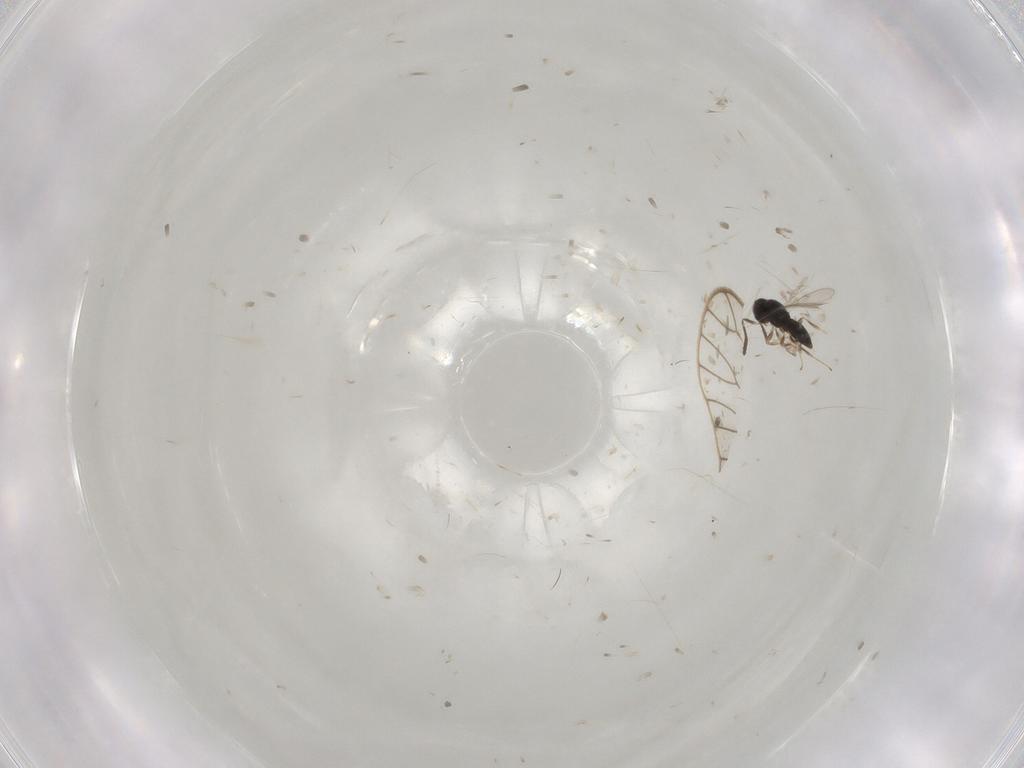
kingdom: Animalia
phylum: Arthropoda
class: Insecta
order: Hymenoptera
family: Scelionidae
